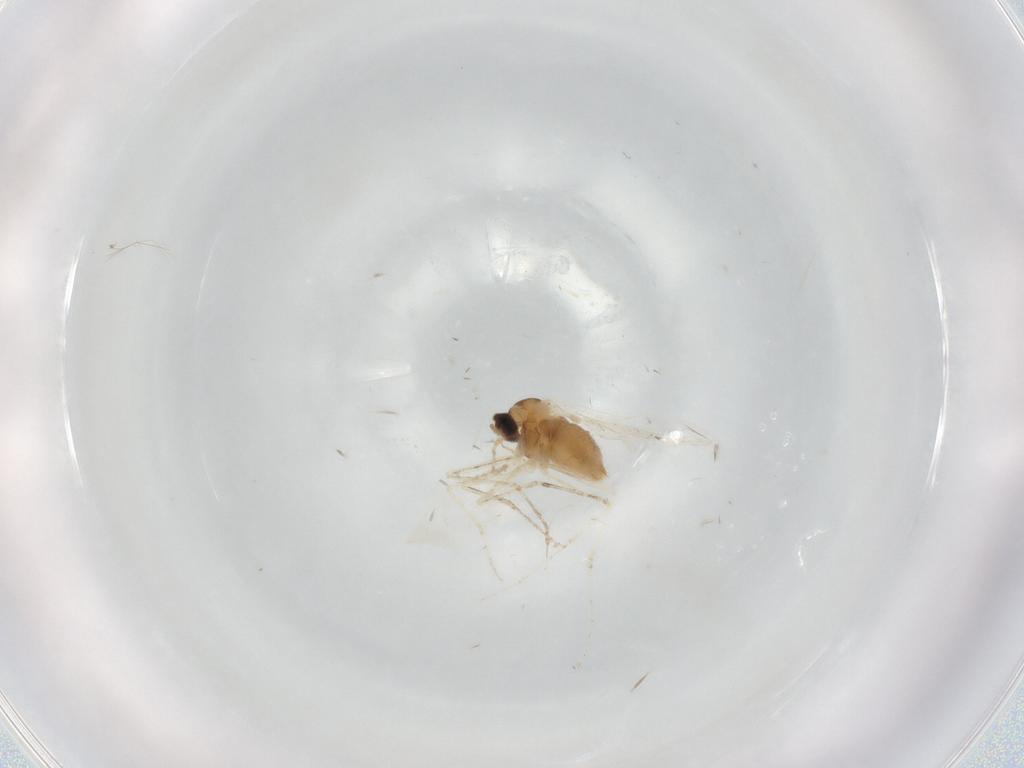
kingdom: Animalia
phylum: Arthropoda
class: Insecta
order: Diptera
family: Cecidomyiidae
